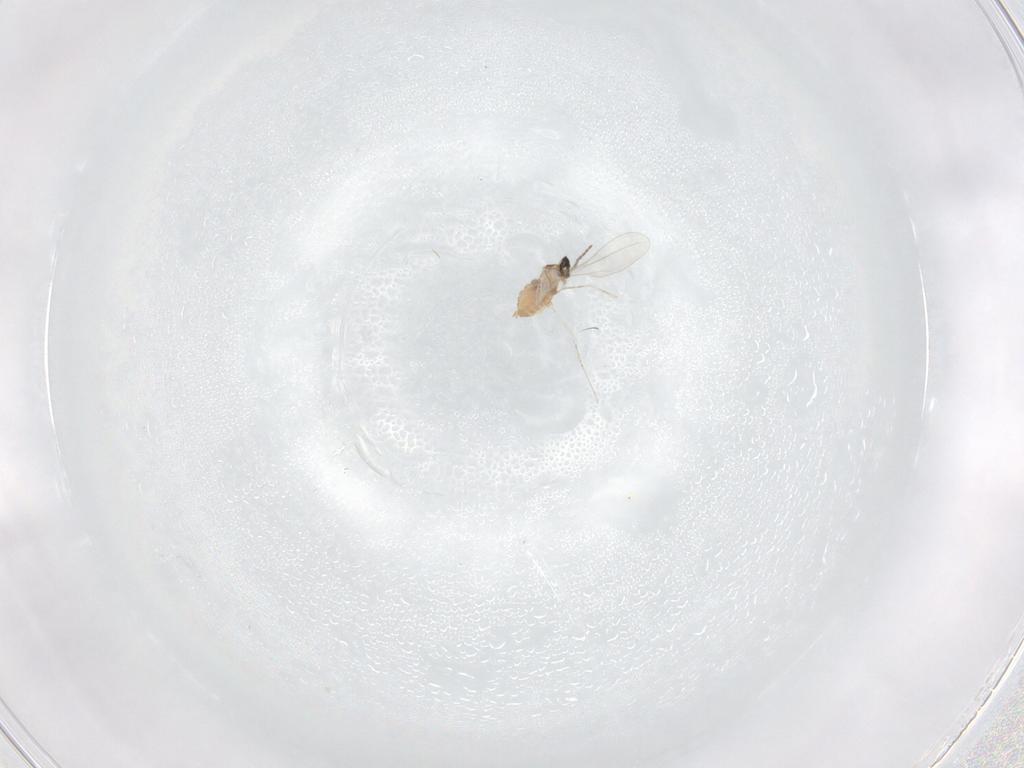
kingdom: Animalia
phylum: Arthropoda
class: Insecta
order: Diptera
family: Cecidomyiidae
